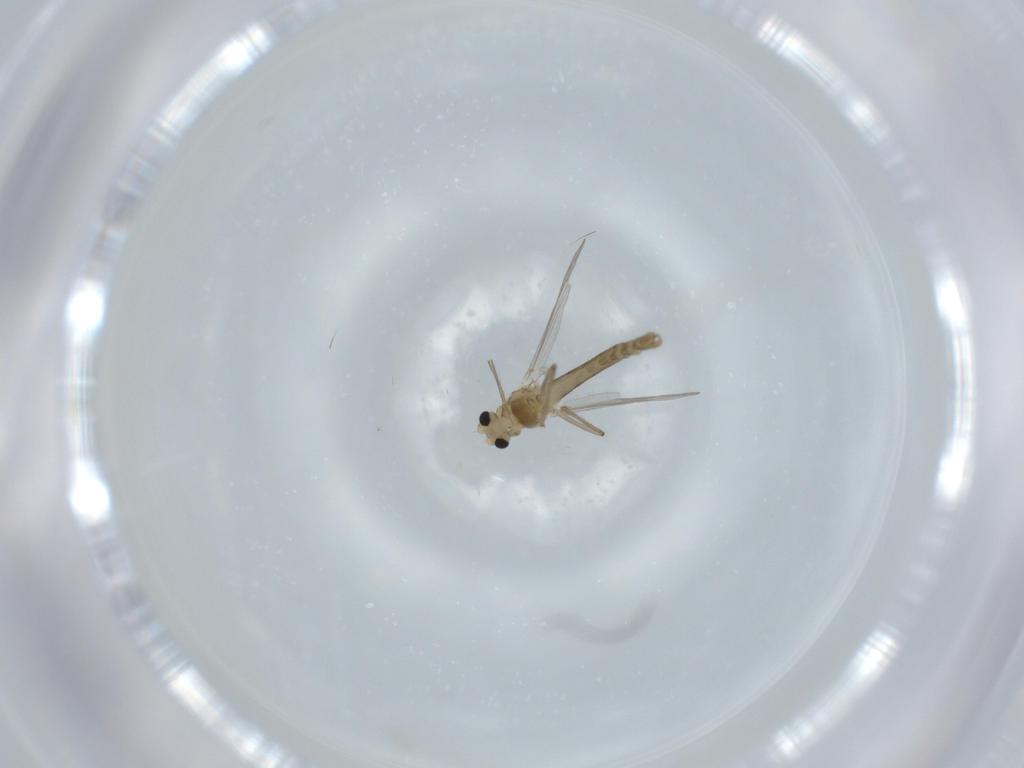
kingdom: Animalia
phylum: Arthropoda
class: Insecta
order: Diptera
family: Chironomidae
